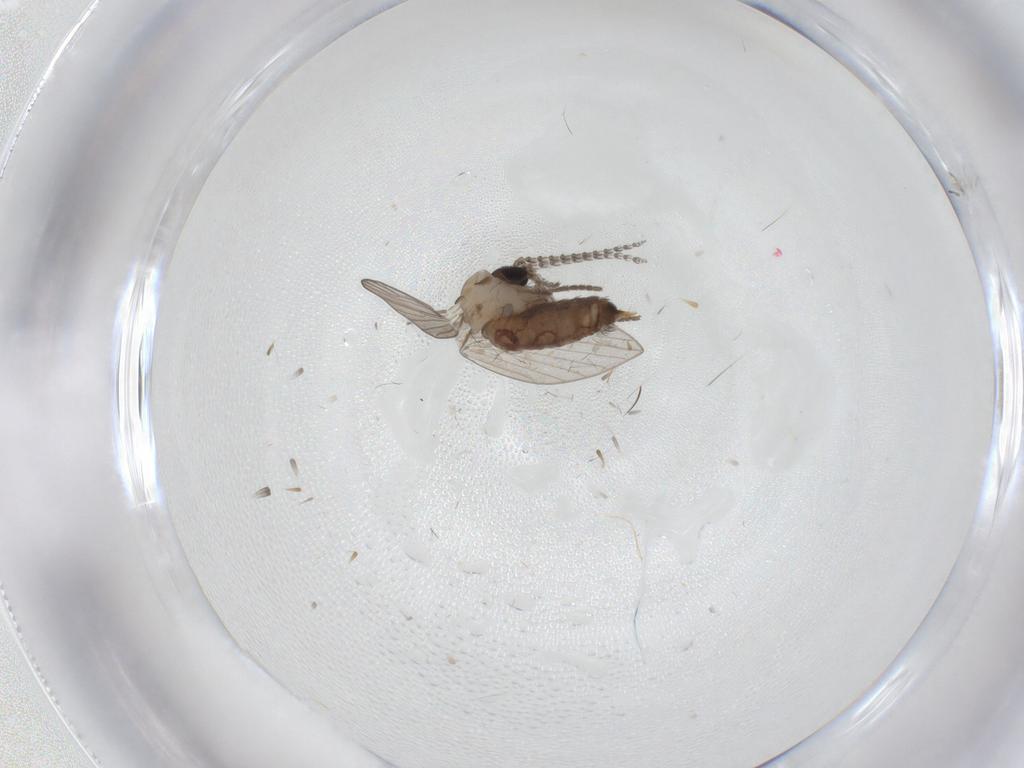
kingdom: Animalia
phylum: Arthropoda
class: Insecta
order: Diptera
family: Psychodidae
